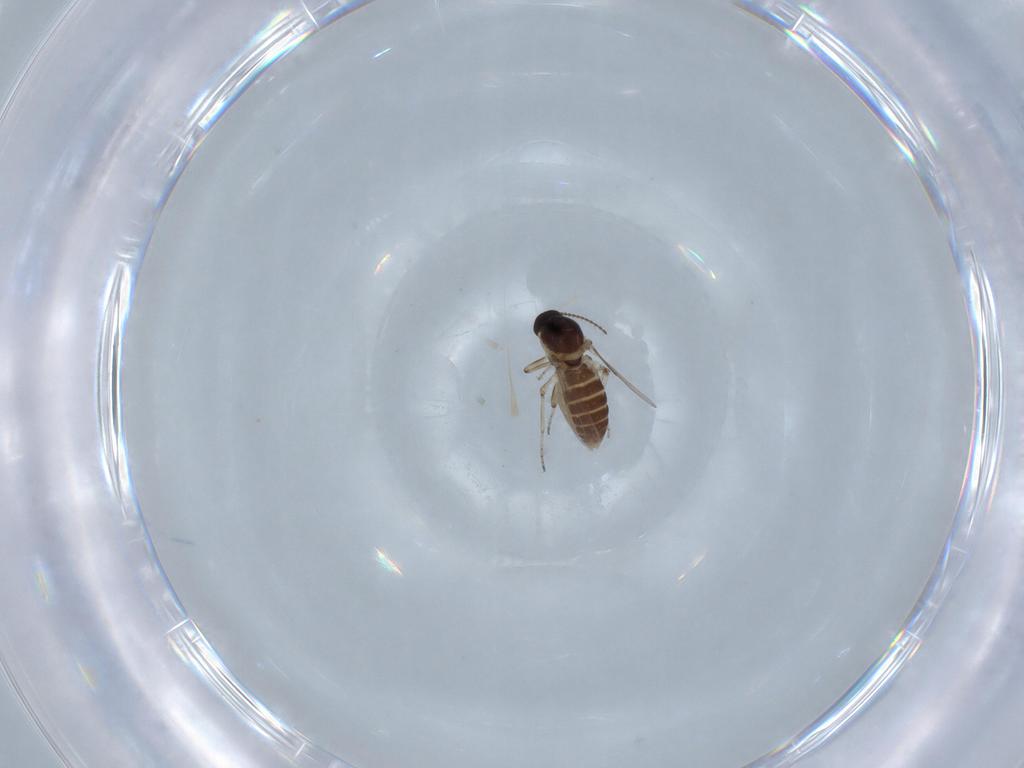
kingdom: Animalia
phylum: Arthropoda
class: Insecta
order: Diptera
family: Ceratopogonidae
